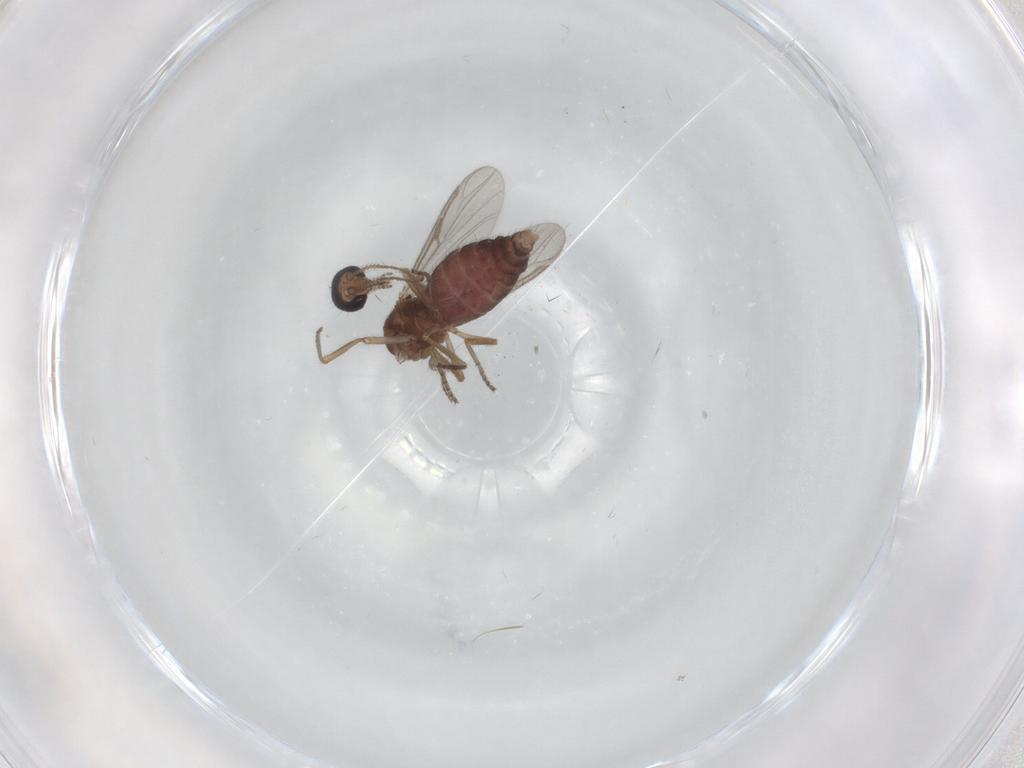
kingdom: Animalia
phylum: Arthropoda
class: Insecta
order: Diptera
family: Ceratopogonidae
